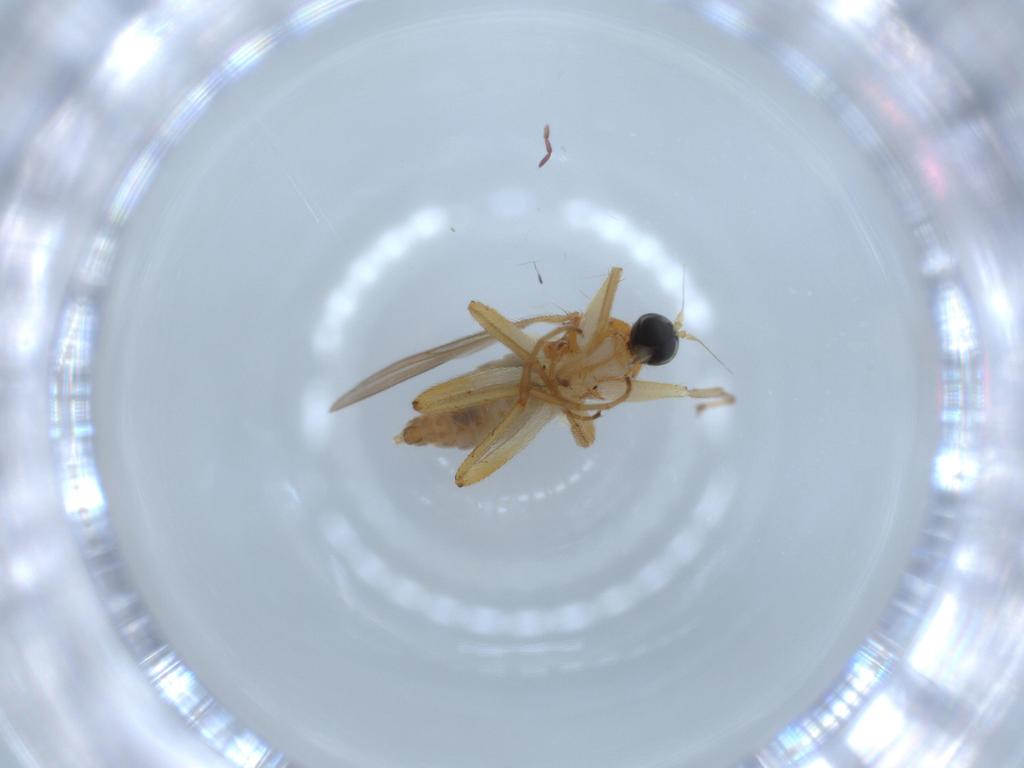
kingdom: Animalia
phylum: Arthropoda
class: Insecta
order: Diptera
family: Hybotidae
